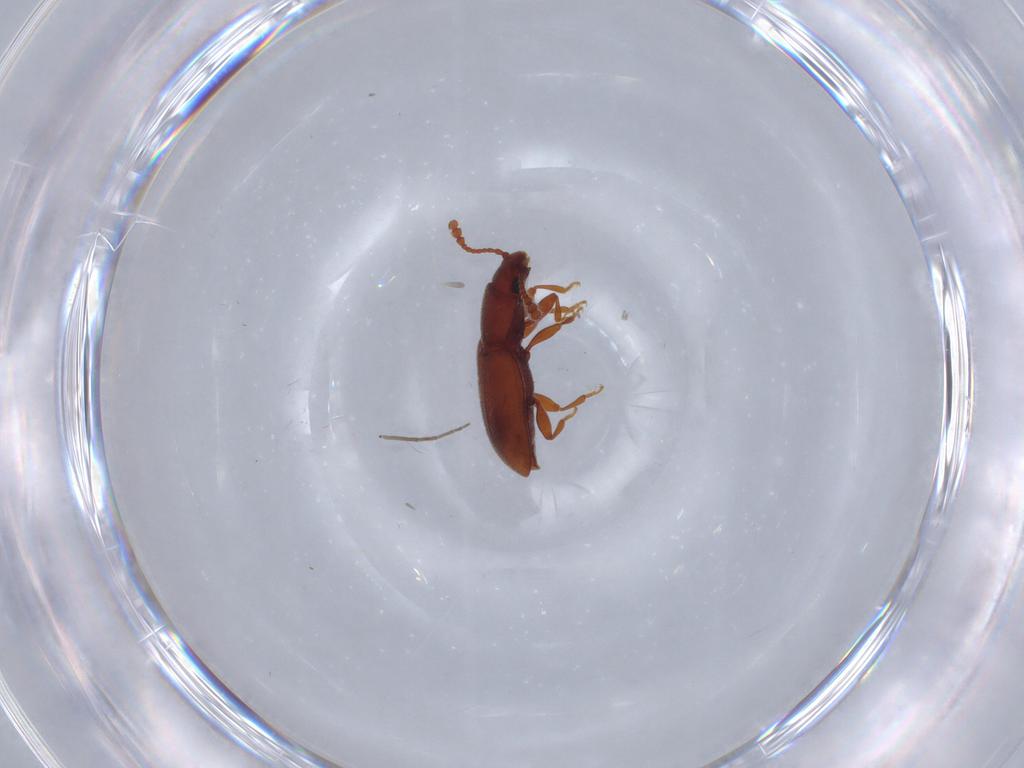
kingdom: Animalia
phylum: Arthropoda
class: Insecta
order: Coleoptera
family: Silvanidae
